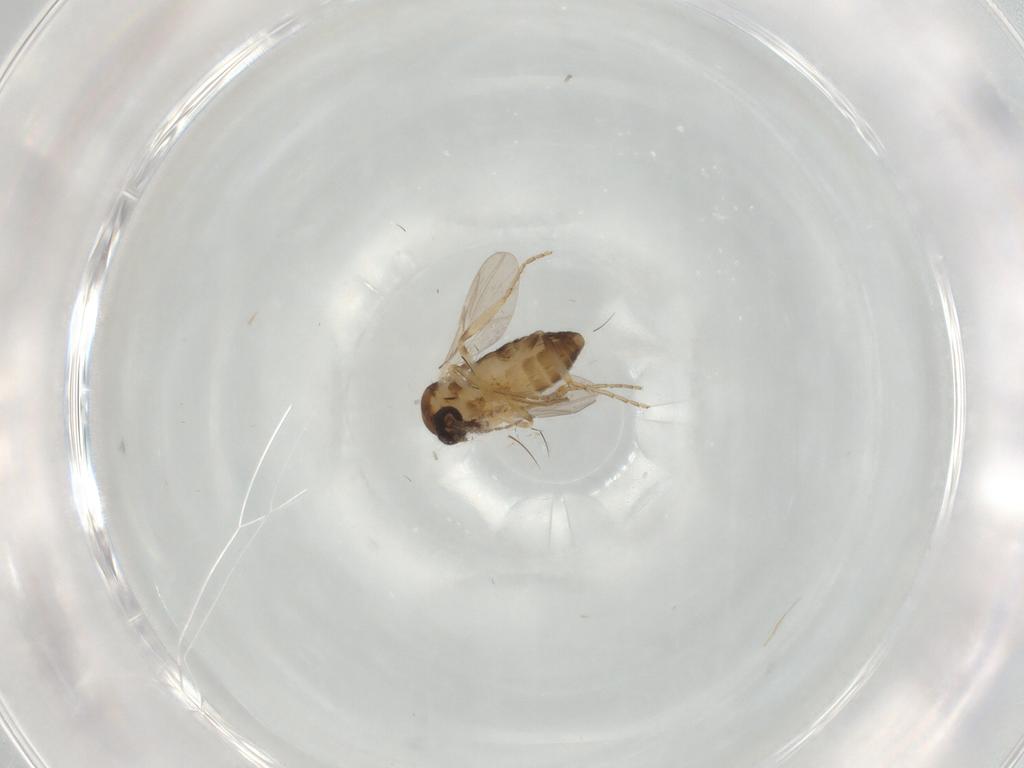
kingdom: Animalia
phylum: Arthropoda
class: Insecta
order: Diptera
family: Ceratopogonidae
